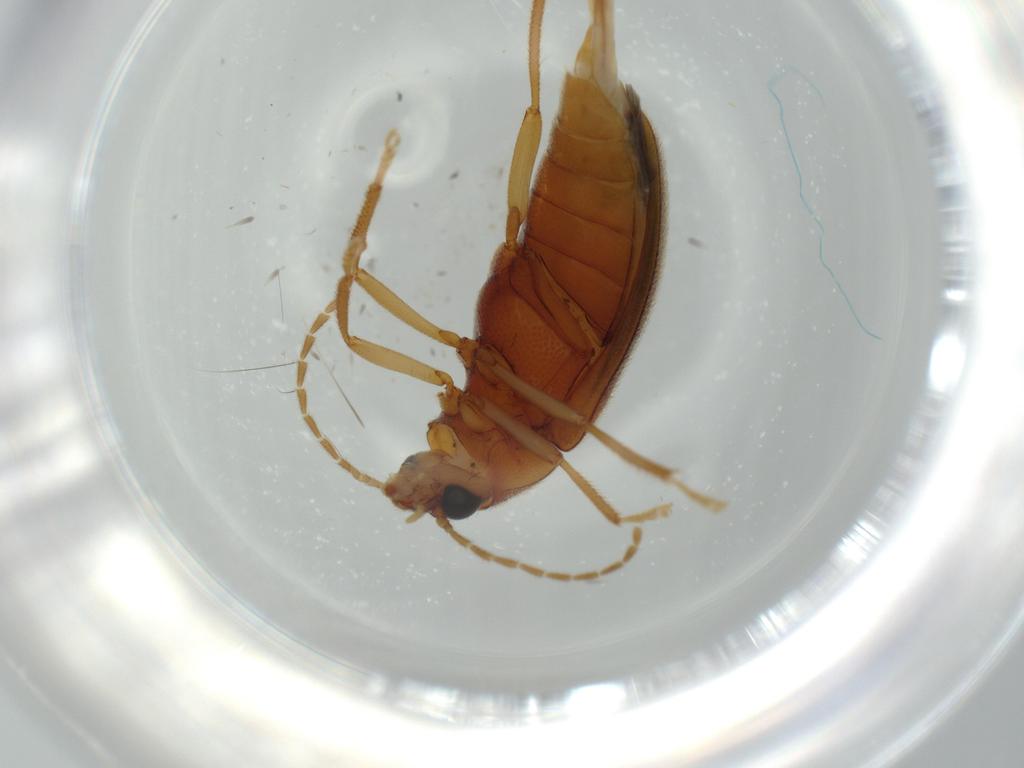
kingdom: Animalia
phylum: Arthropoda
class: Insecta
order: Coleoptera
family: Ptilodactylidae
